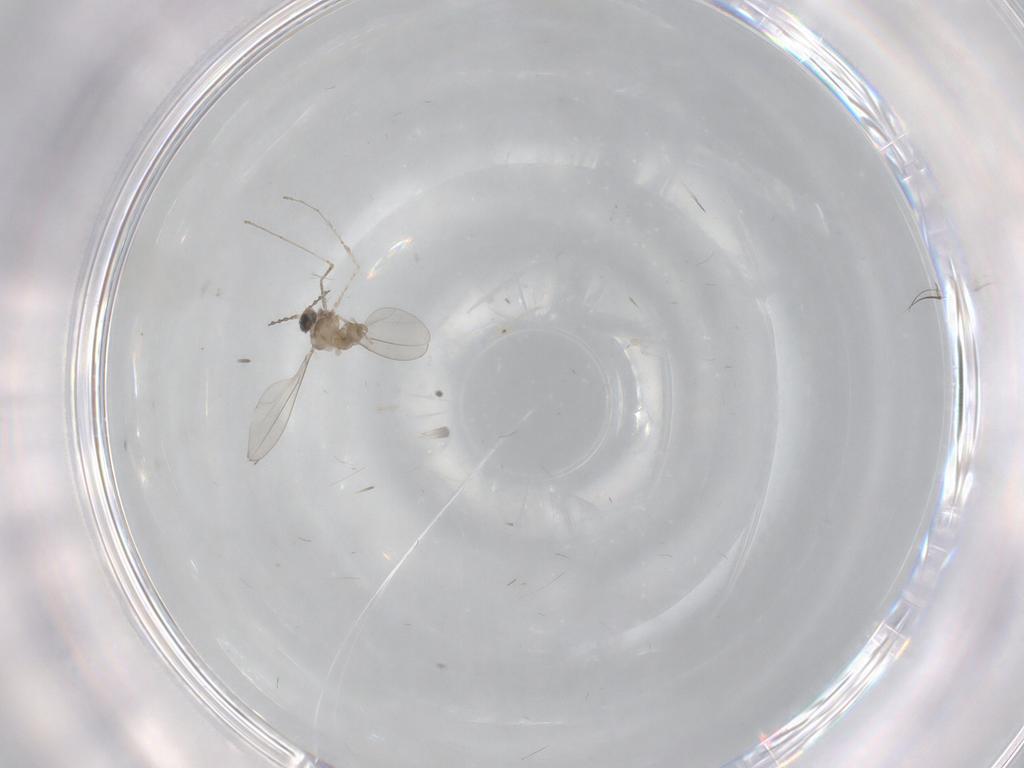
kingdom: Animalia
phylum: Arthropoda
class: Insecta
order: Diptera
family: Cecidomyiidae
